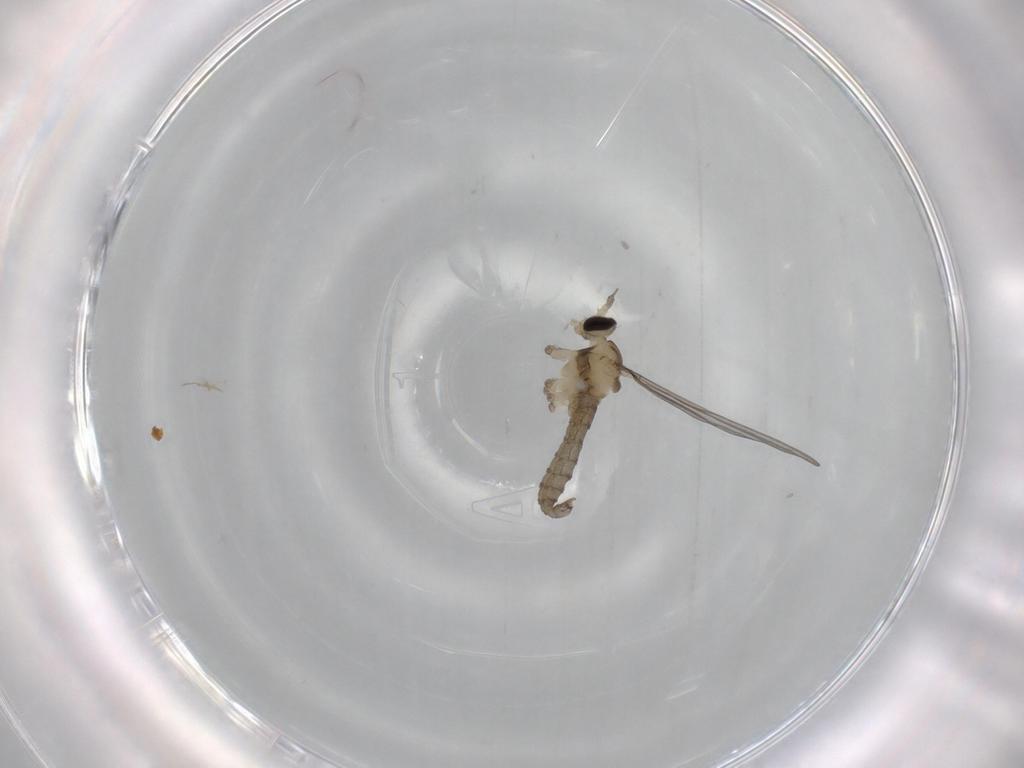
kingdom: Animalia
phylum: Arthropoda
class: Insecta
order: Diptera
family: Cecidomyiidae
